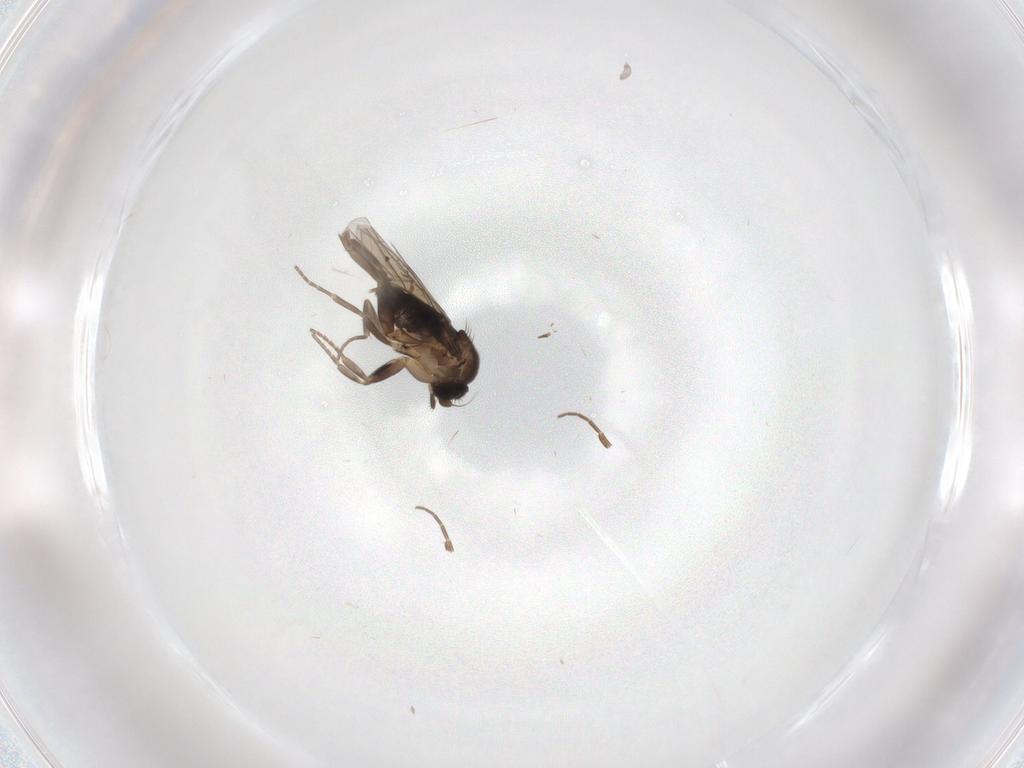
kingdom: Animalia
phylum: Arthropoda
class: Insecta
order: Diptera
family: Phoridae
